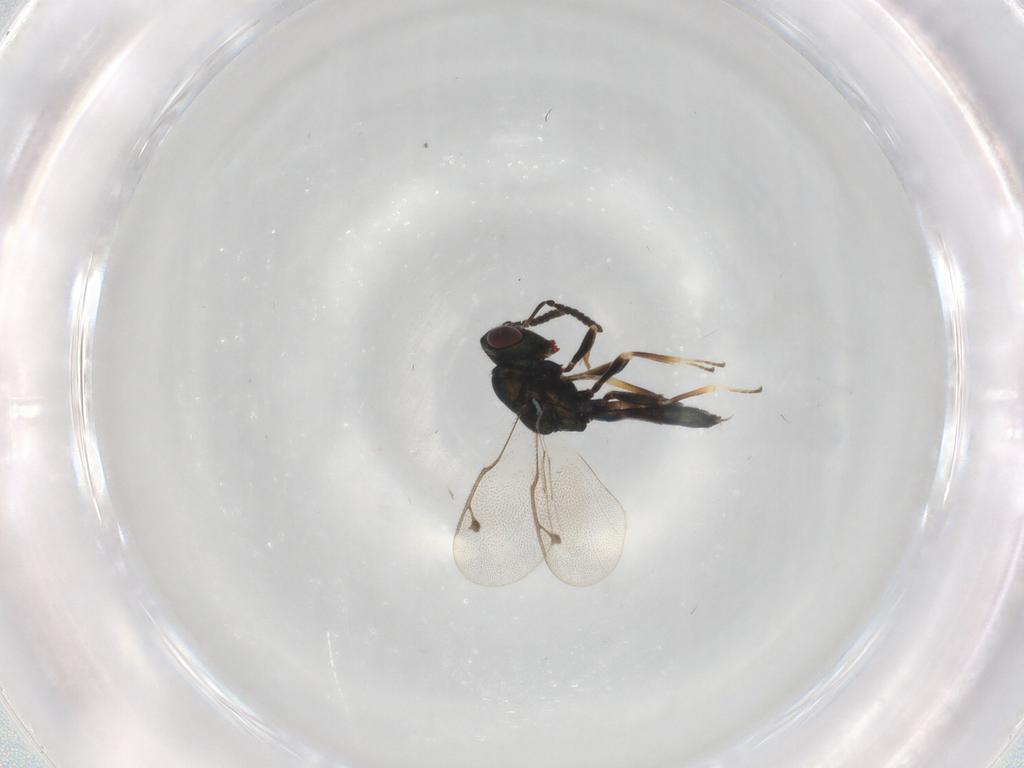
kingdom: Animalia
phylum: Arthropoda
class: Insecta
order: Hymenoptera
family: Pteromalidae
